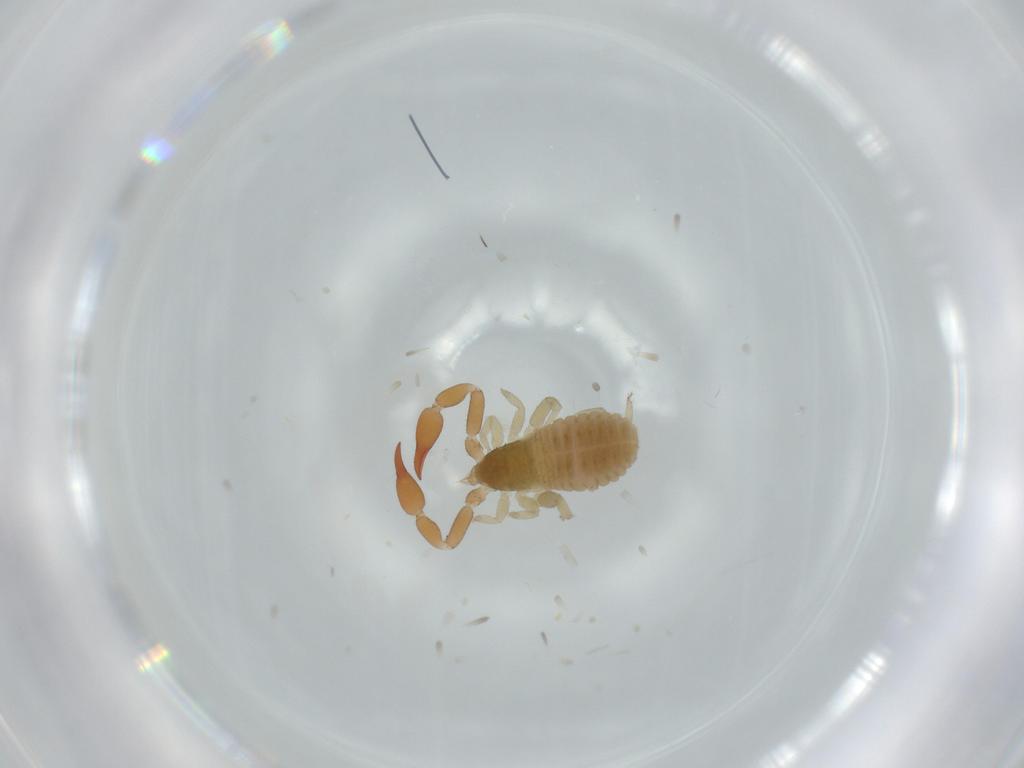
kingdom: Animalia
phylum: Arthropoda
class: Arachnida
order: Pseudoscorpiones
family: Withiidae
